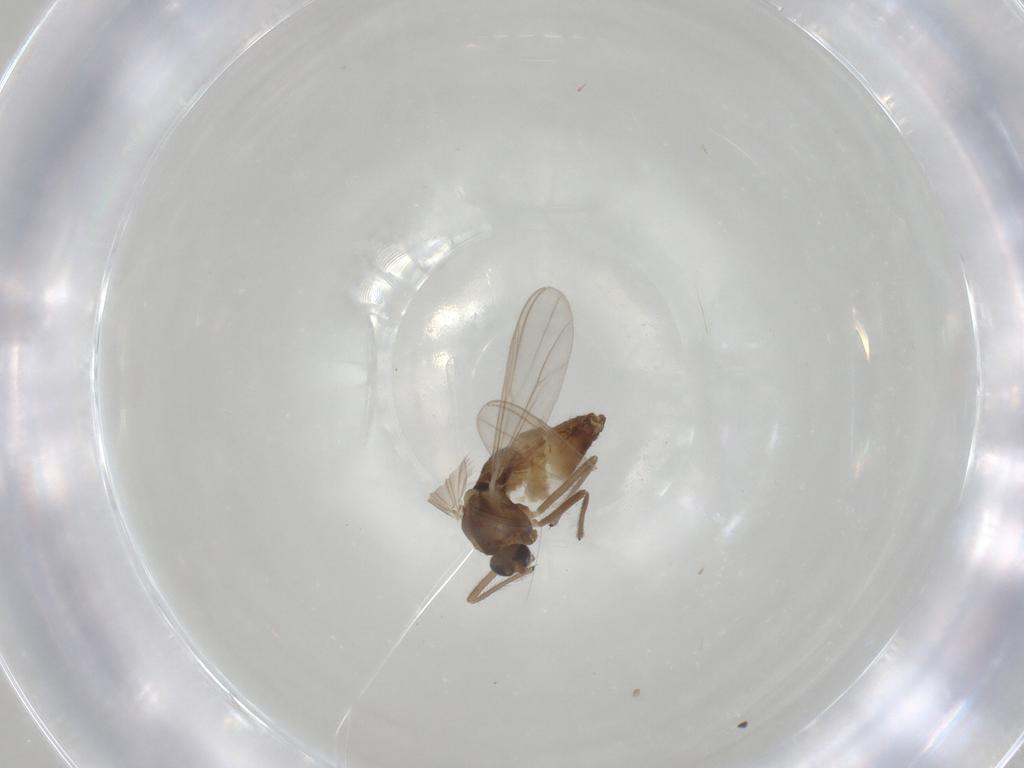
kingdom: Animalia
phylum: Arthropoda
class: Insecta
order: Diptera
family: Chironomidae
